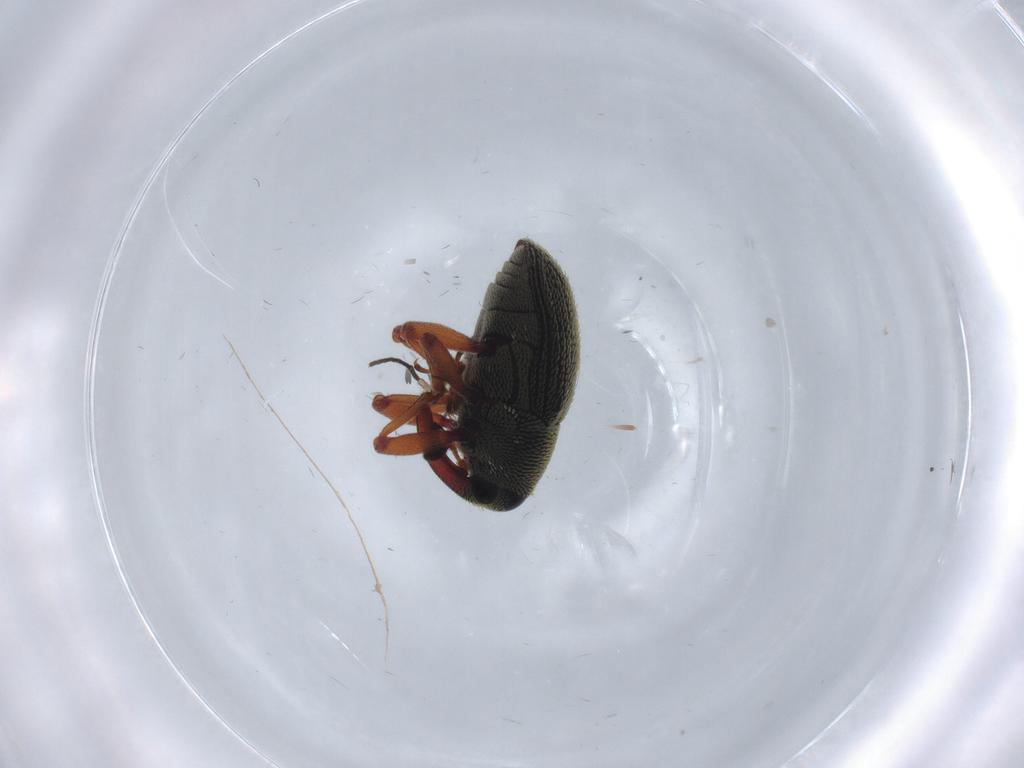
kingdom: Animalia
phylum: Arthropoda
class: Insecta
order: Coleoptera
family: Curculionidae
